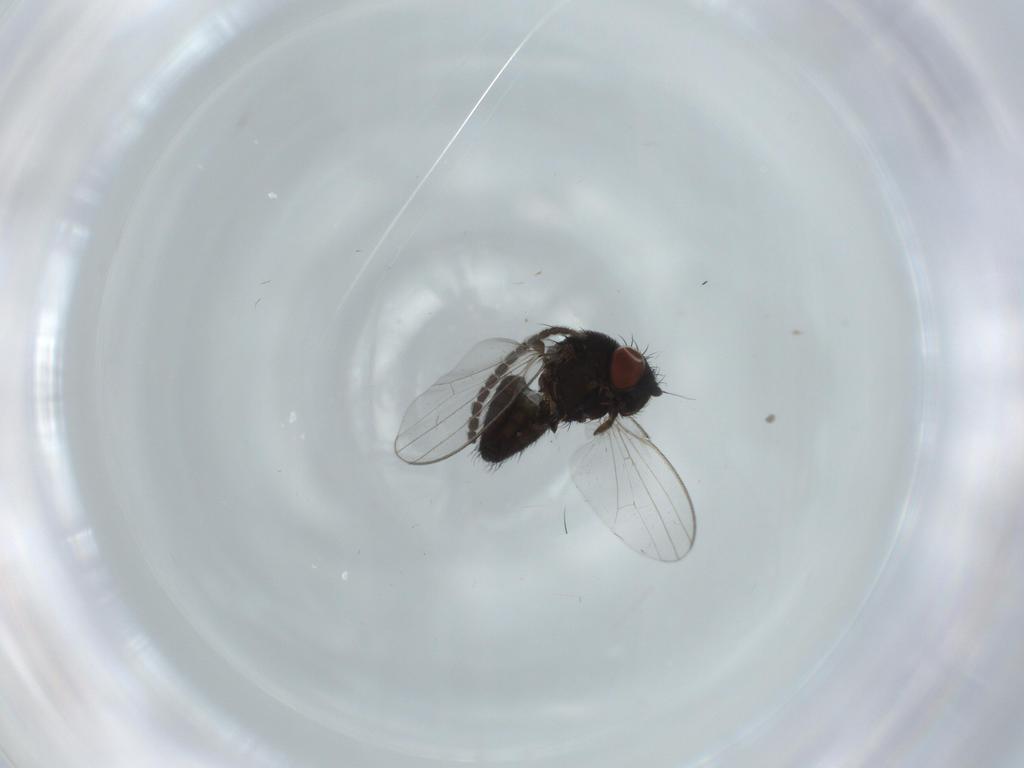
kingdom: Animalia
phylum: Arthropoda
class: Insecta
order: Diptera
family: Milichiidae
